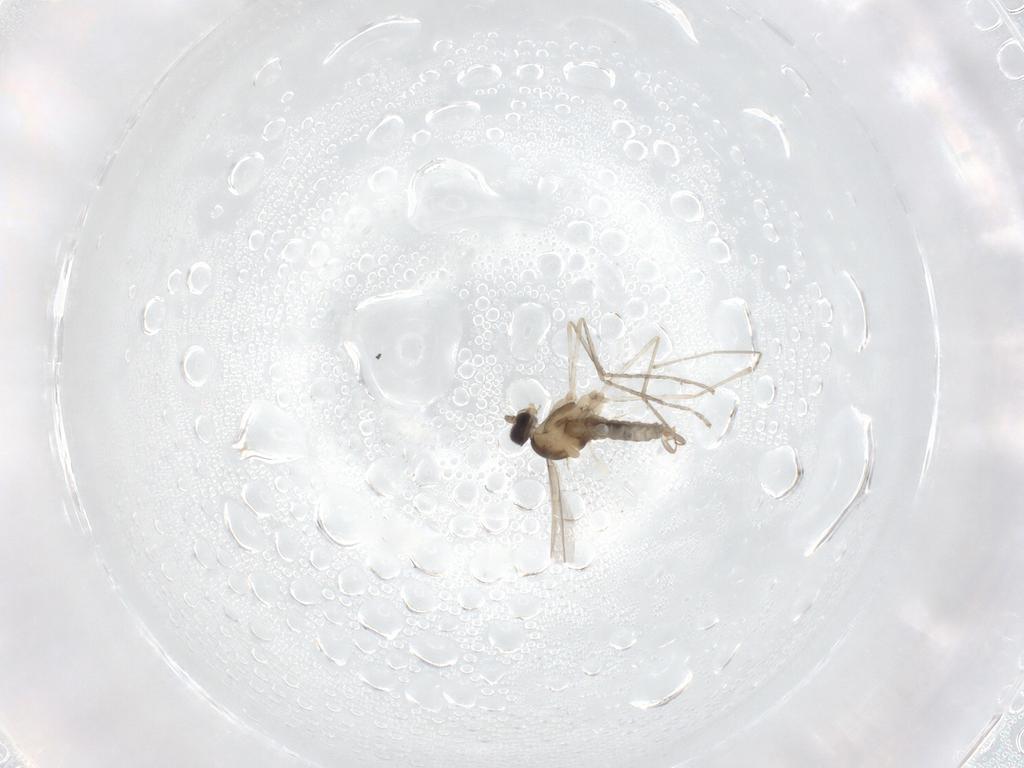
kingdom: Animalia
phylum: Arthropoda
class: Insecta
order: Diptera
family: Cecidomyiidae
